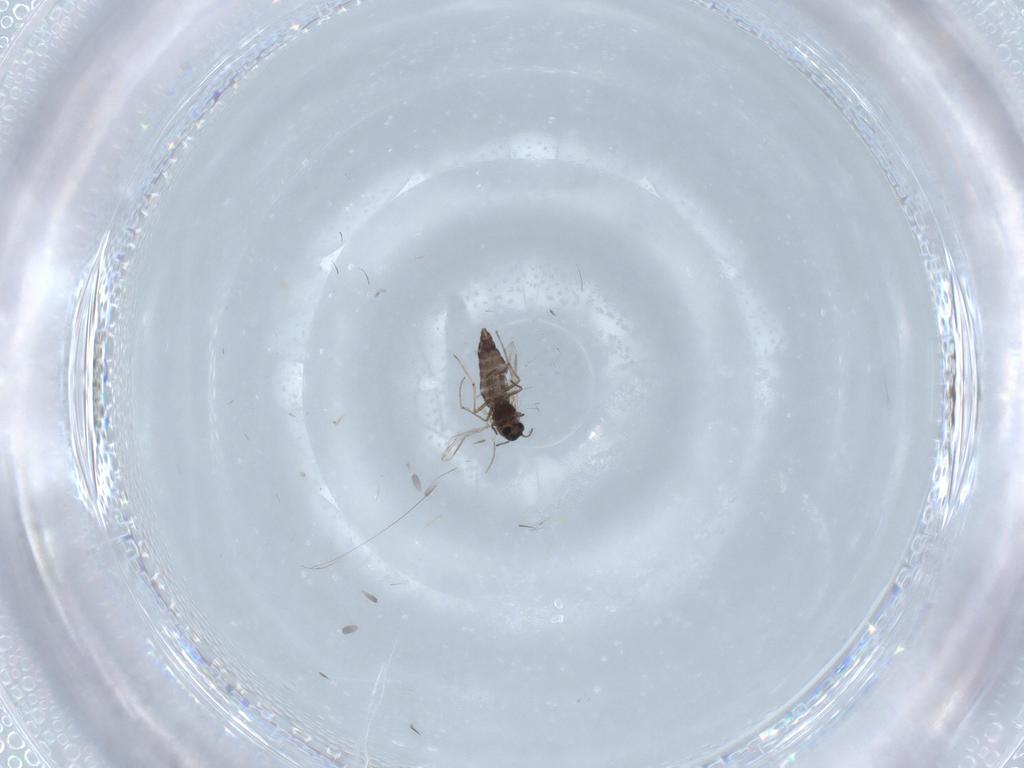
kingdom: Animalia
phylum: Arthropoda
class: Insecta
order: Diptera
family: Chironomidae
